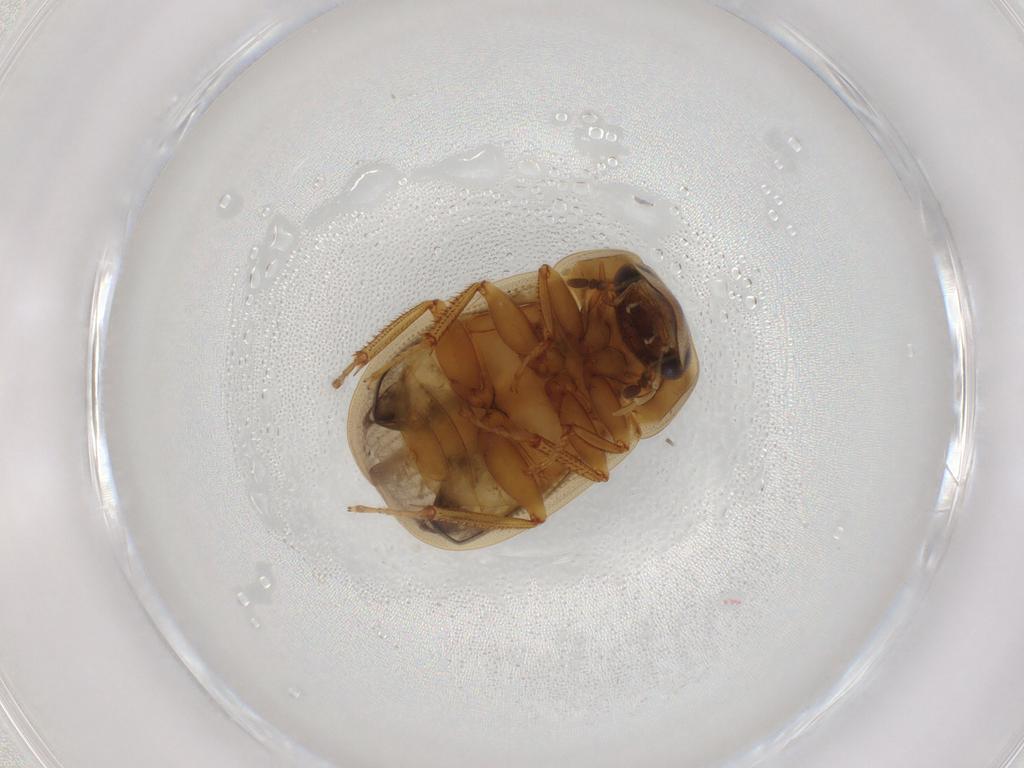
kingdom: Animalia
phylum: Arthropoda
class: Insecta
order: Coleoptera
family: Hydrophilidae
